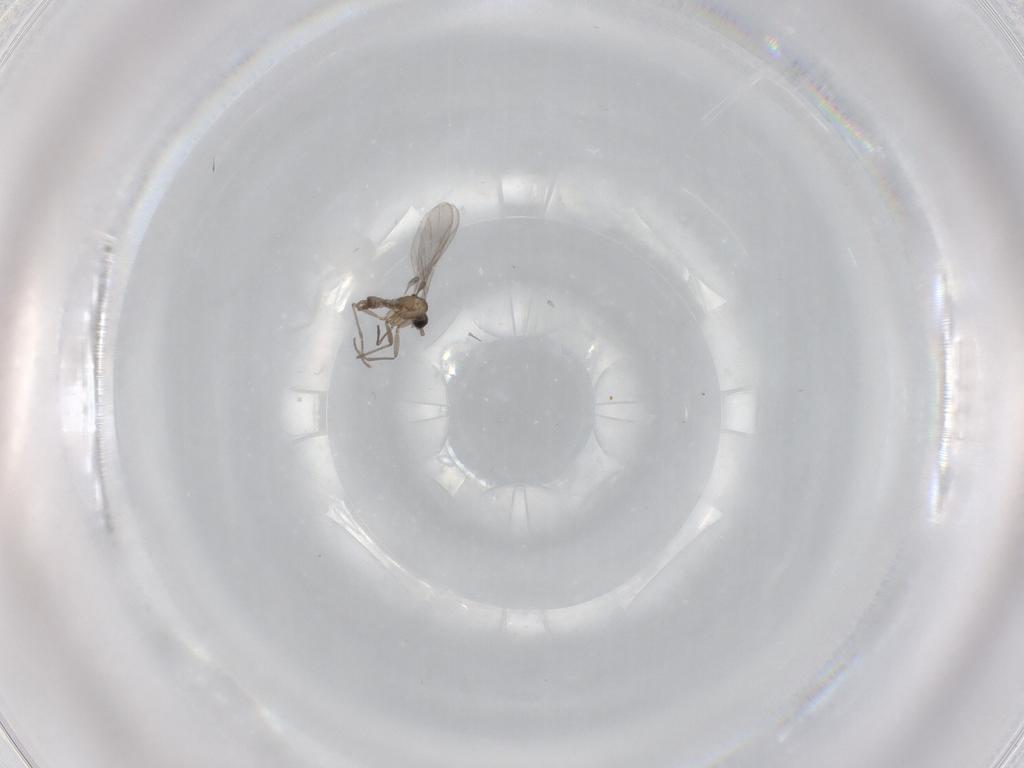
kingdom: Animalia
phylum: Arthropoda
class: Insecta
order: Diptera
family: Sciaridae
